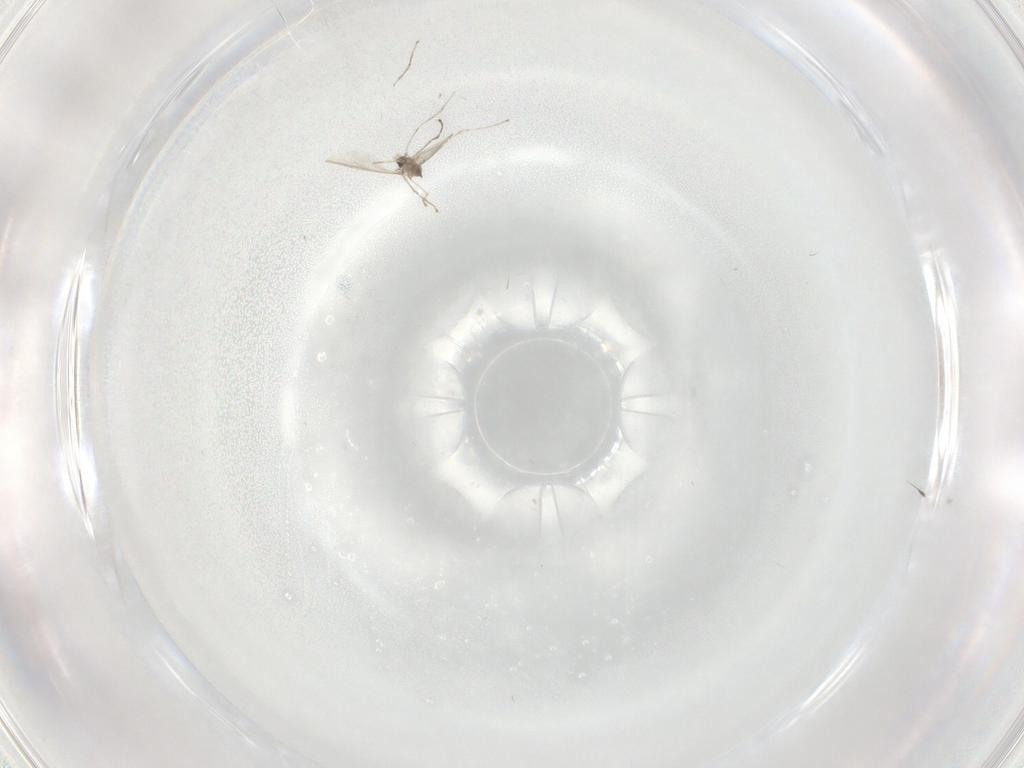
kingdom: Animalia
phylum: Arthropoda
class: Insecta
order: Diptera
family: Cecidomyiidae
